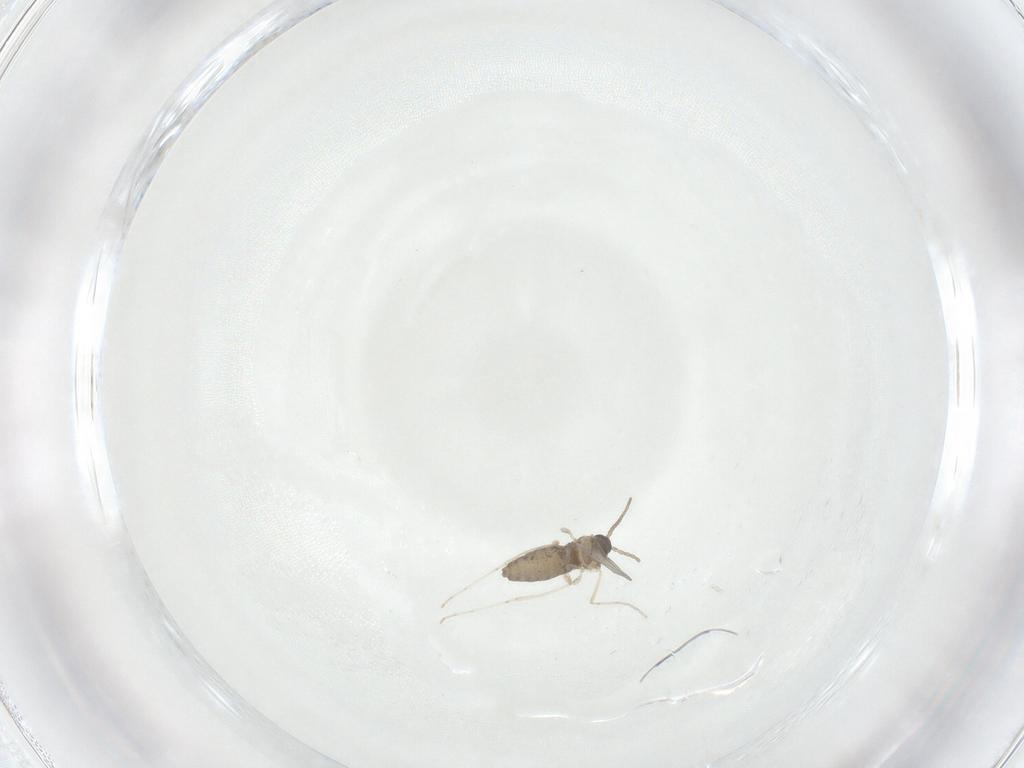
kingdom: Animalia
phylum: Arthropoda
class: Insecta
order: Diptera
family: Cecidomyiidae
